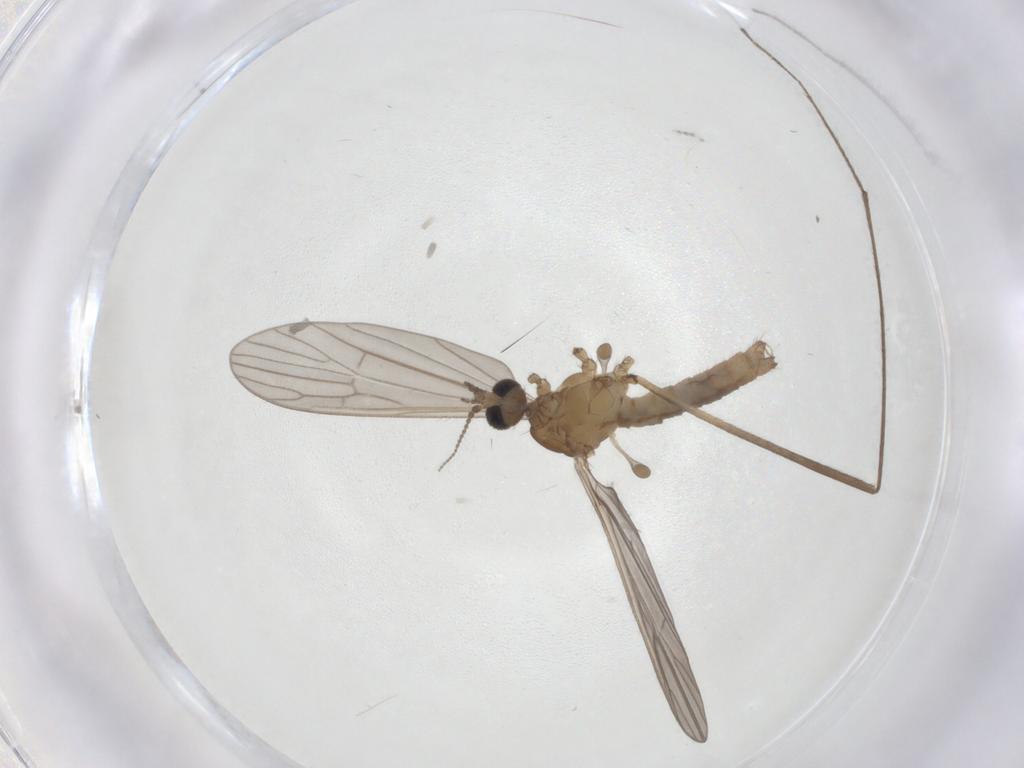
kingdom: Animalia
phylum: Arthropoda
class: Insecta
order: Diptera
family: Limoniidae
